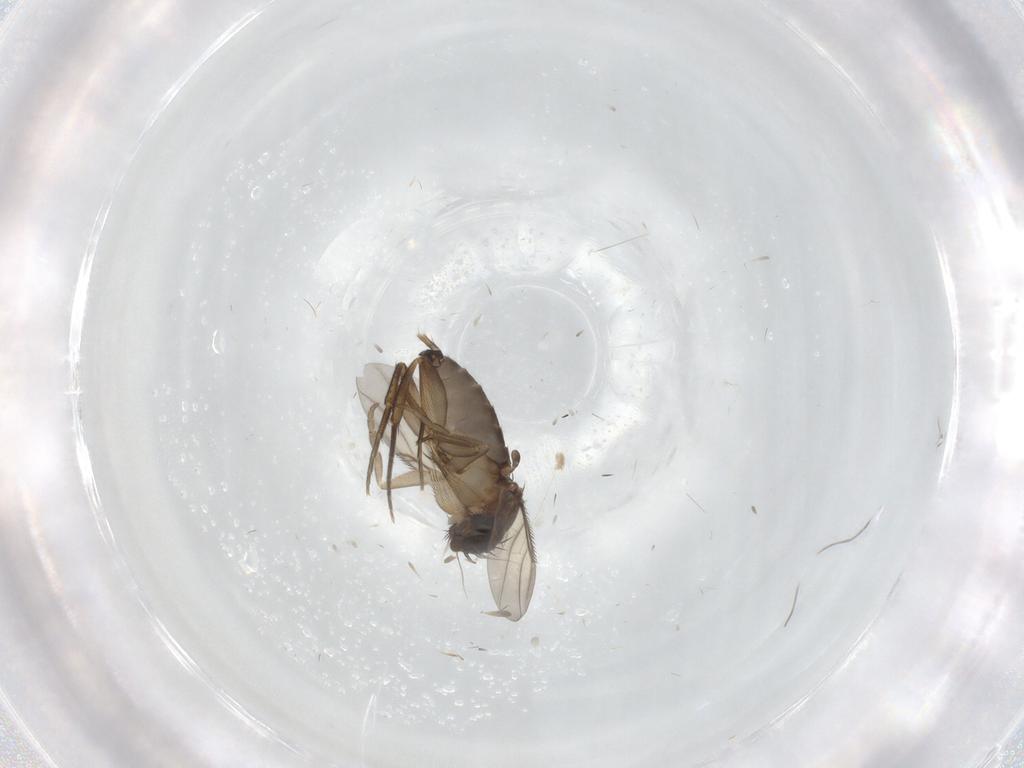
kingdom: Animalia
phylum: Arthropoda
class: Insecta
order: Diptera
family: Phoridae
